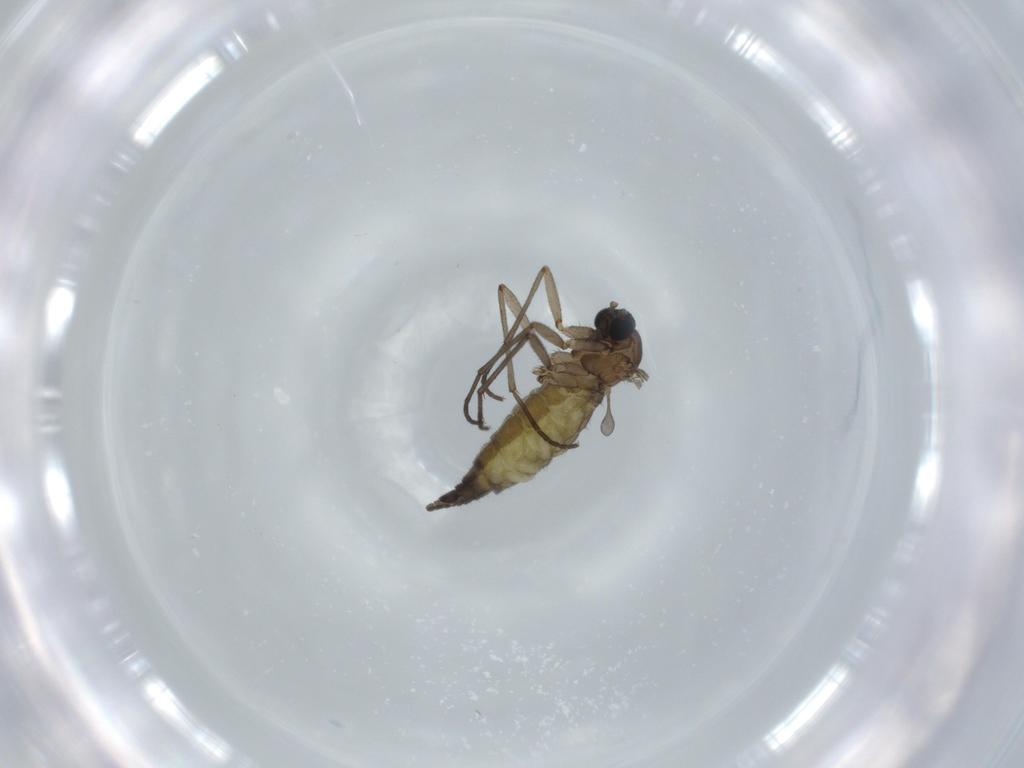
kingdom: Animalia
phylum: Arthropoda
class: Insecta
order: Diptera
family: Sciaridae
